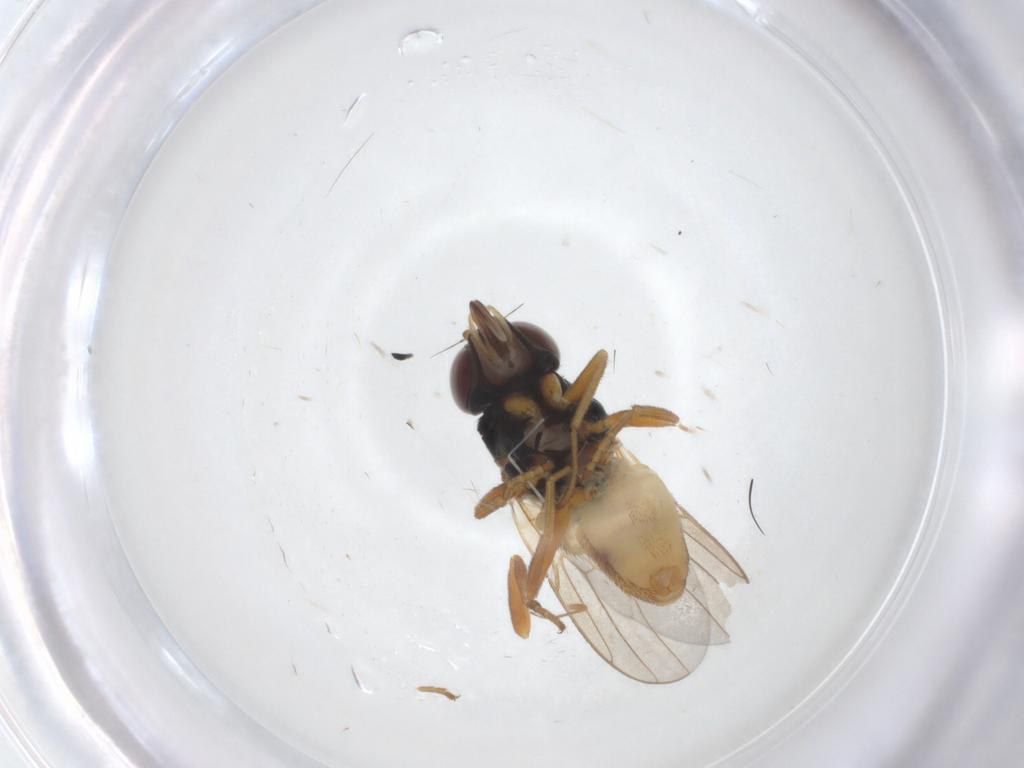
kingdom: Animalia
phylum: Arthropoda
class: Insecta
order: Diptera
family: Chloropidae
